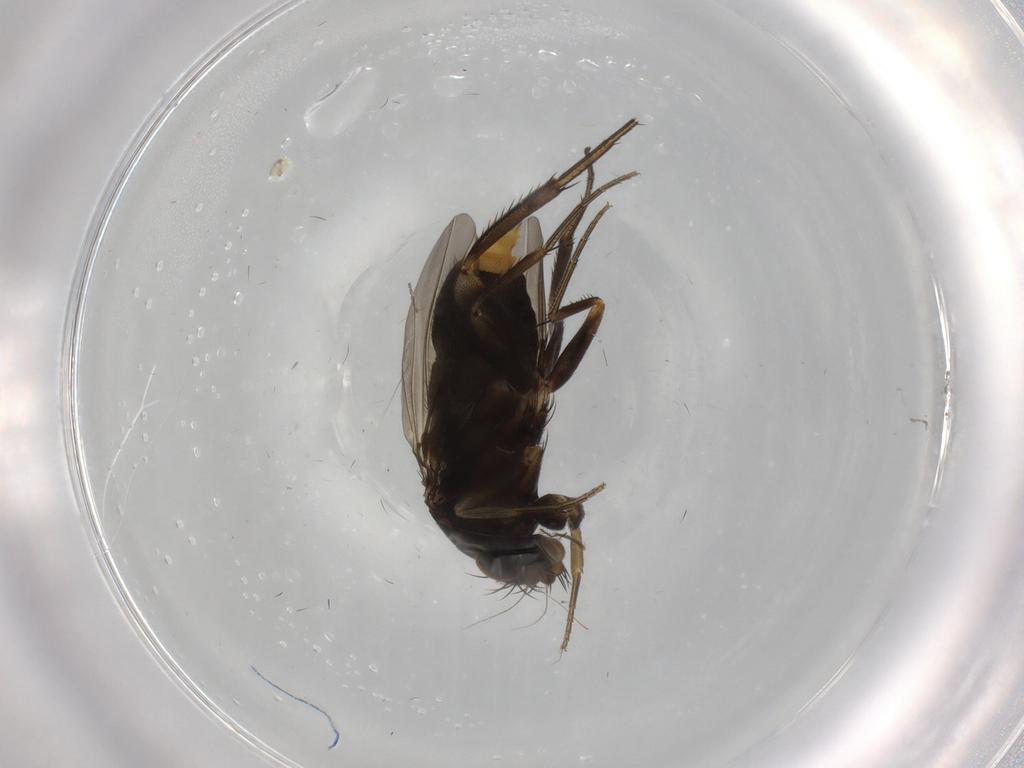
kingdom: Animalia
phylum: Arthropoda
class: Insecta
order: Diptera
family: Phoridae
